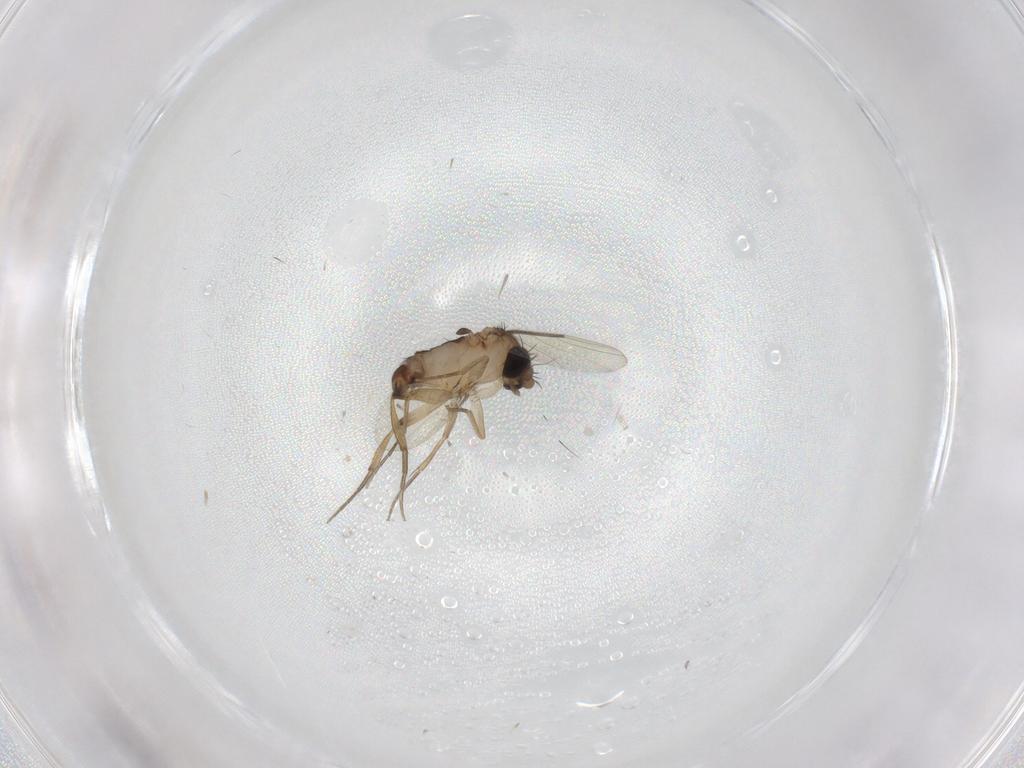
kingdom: Animalia
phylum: Arthropoda
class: Insecta
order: Diptera
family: Phoridae
